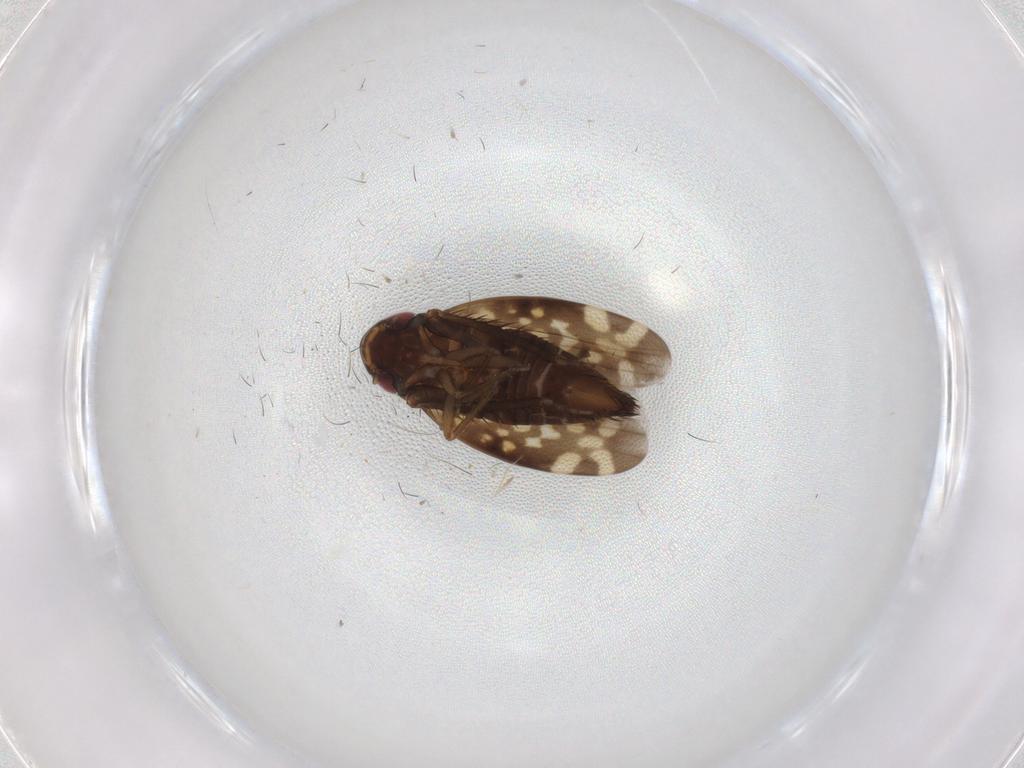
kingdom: Animalia
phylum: Arthropoda
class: Insecta
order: Hemiptera
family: Cicadellidae
